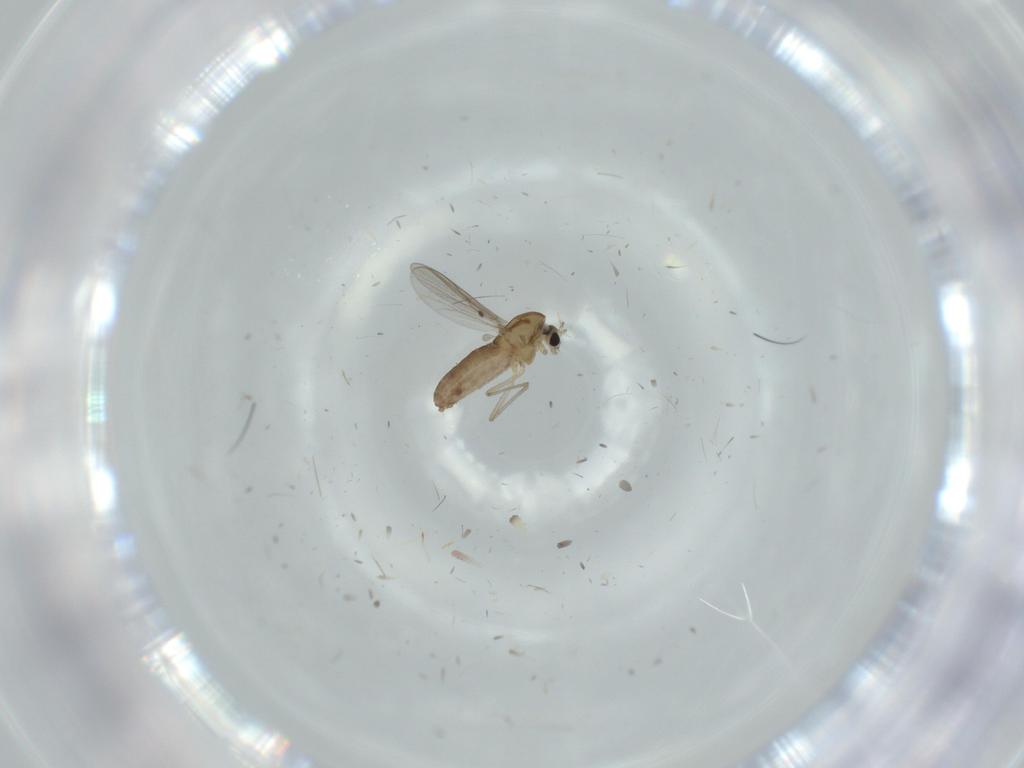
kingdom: Animalia
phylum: Arthropoda
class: Insecta
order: Diptera
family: Chironomidae
